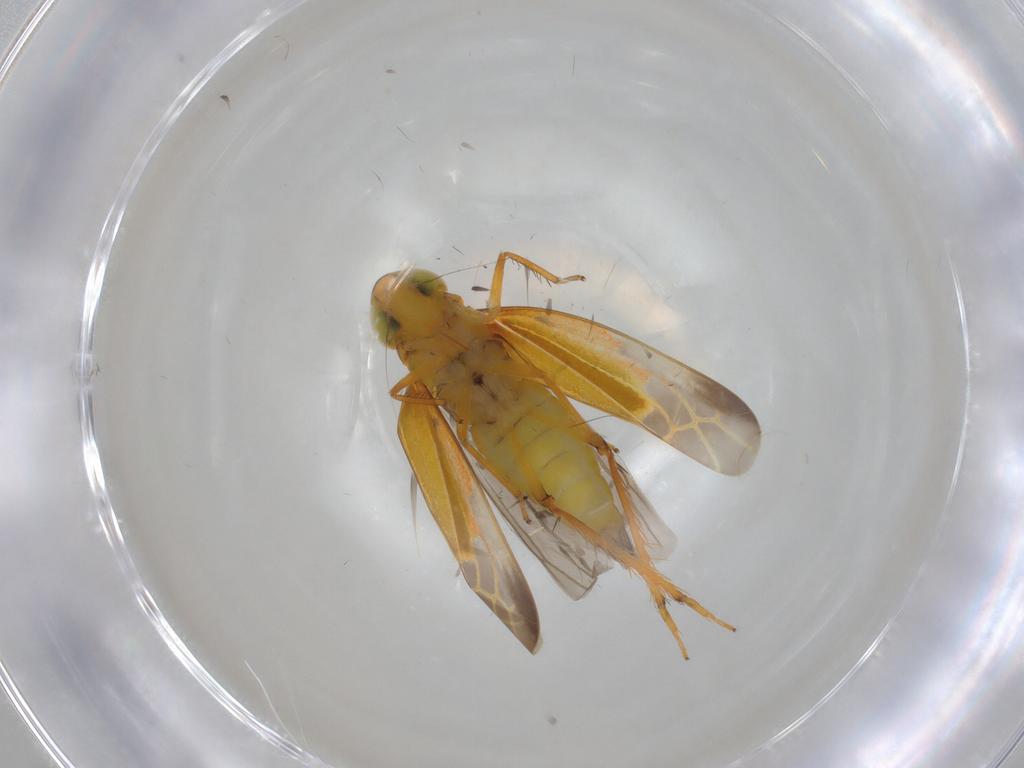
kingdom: Animalia
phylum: Arthropoda
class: Insecta
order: Hemiptera
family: Cicadellidae
